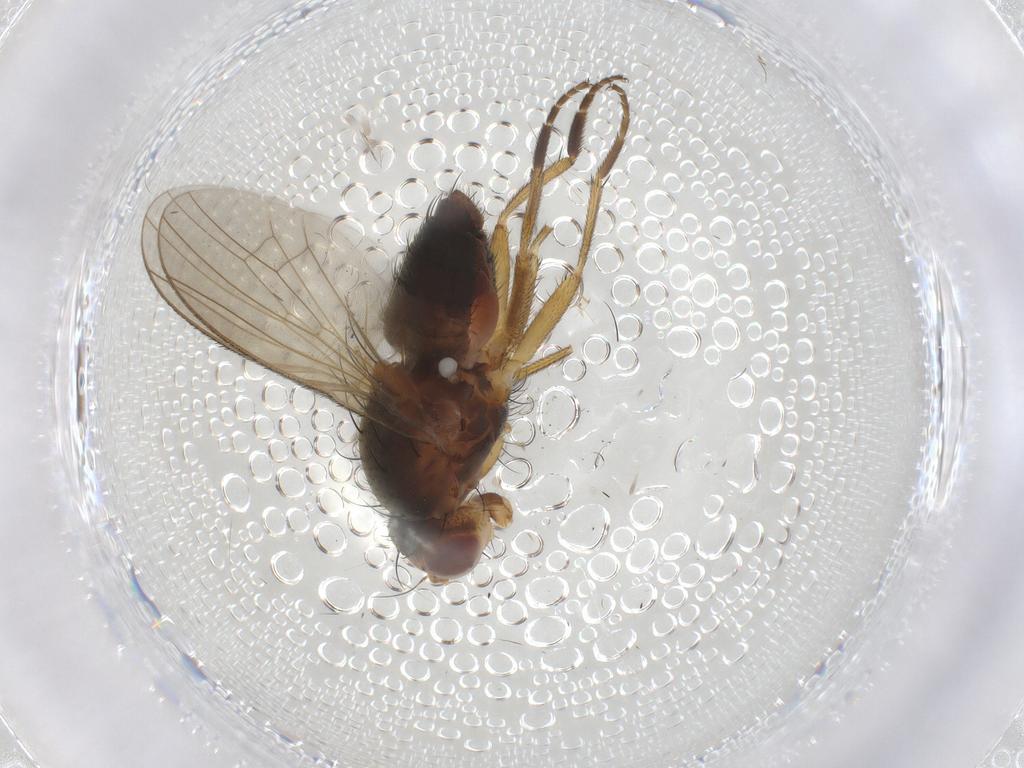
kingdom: Animalia
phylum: Arthropoda
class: Insecta
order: Diptera
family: Heleomyzidae
